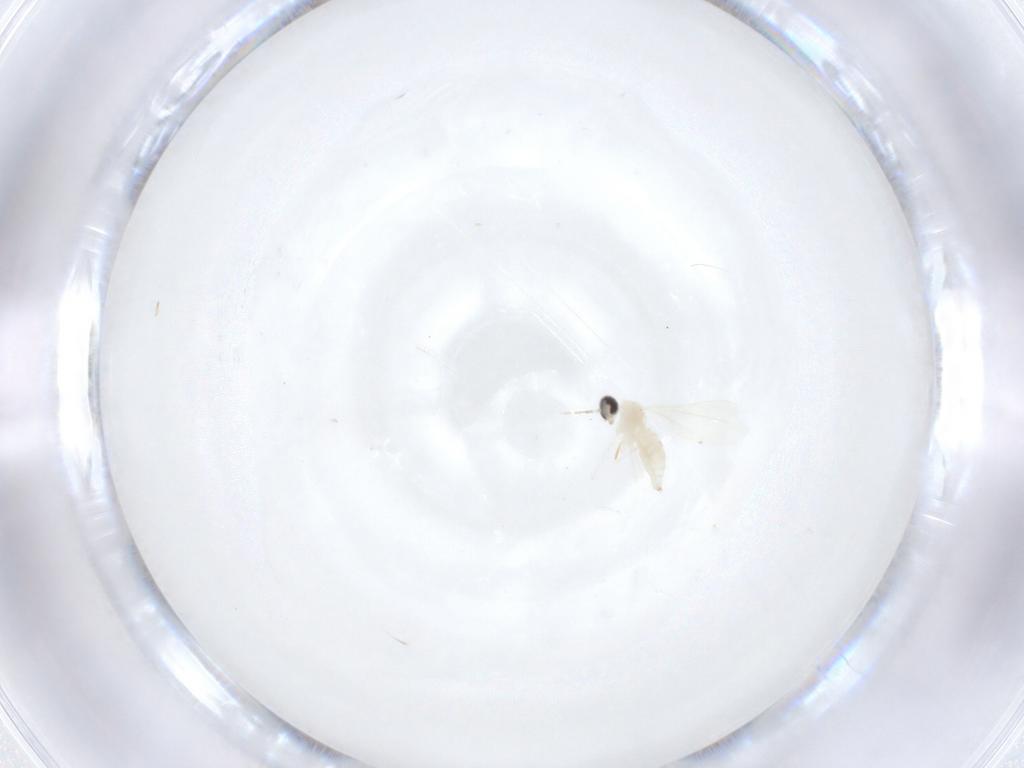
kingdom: Animalia
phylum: Arthropoda
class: Insecta
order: Diptera
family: Cecidomyiidae
